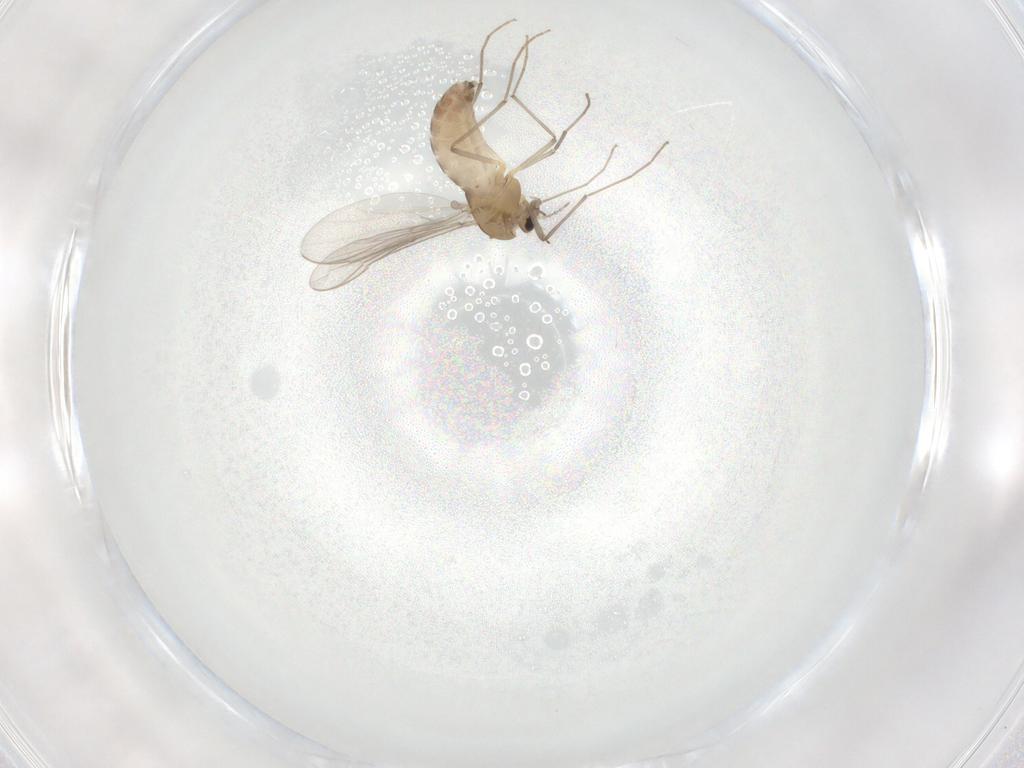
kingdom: Animalia
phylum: Arthropoda
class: Insecta
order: Diptera
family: Chironomidae
